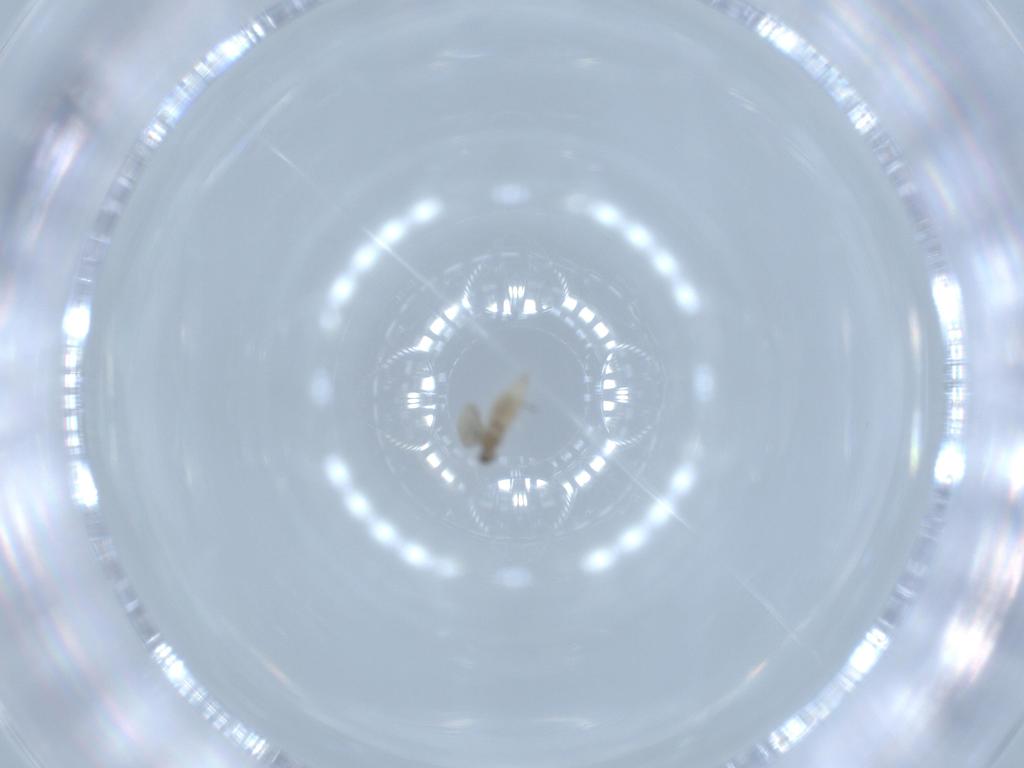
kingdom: Animalia
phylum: Arthropoda
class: Insecta
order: Diptera
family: Cecidomyiidae
